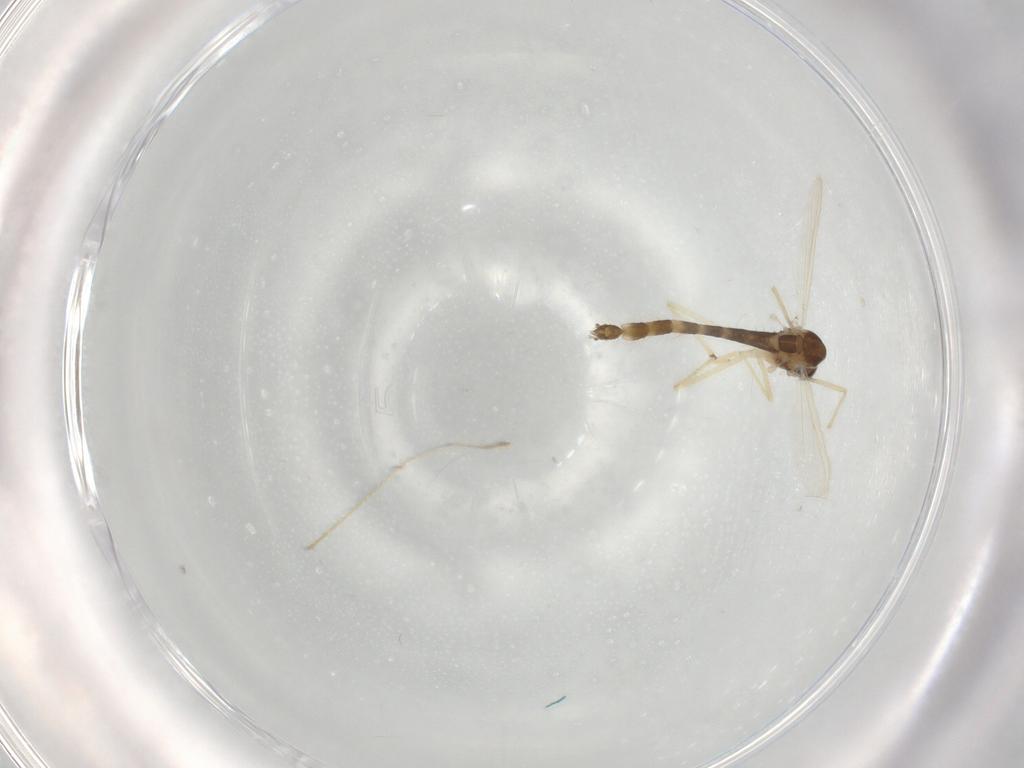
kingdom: Animalia
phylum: Arthropoda
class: Insecta
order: Diptera
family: Chironomidae
